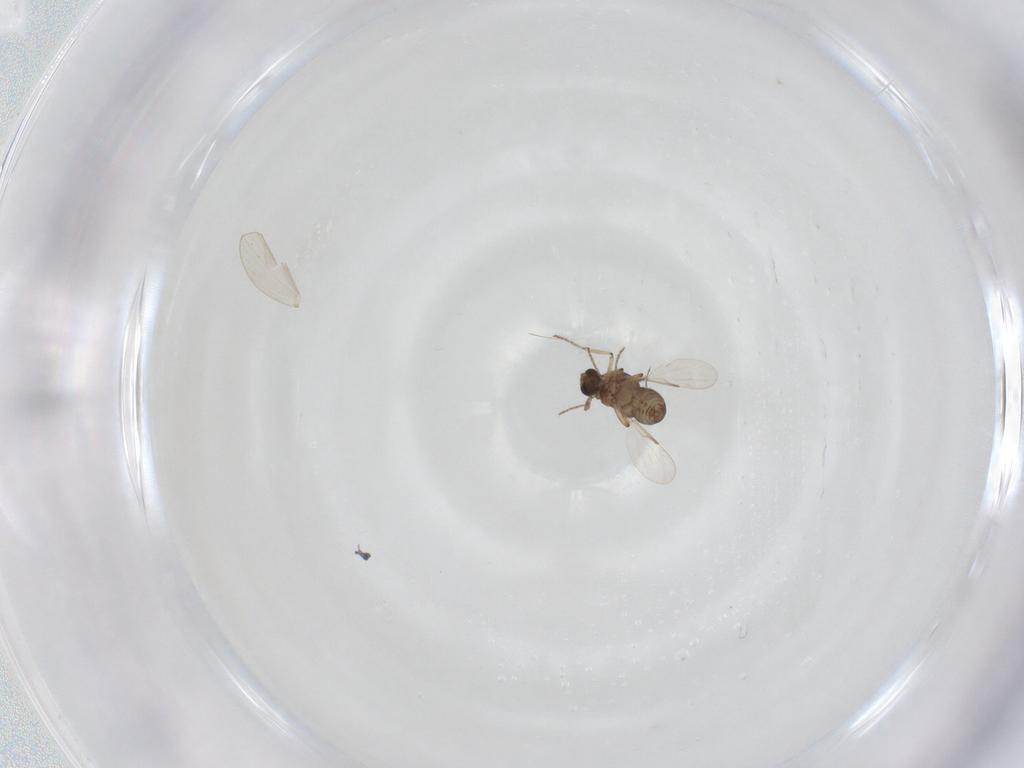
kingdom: Animalia
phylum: Arthropoda
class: Insecta
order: Diptera
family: Ceratopogonidae
